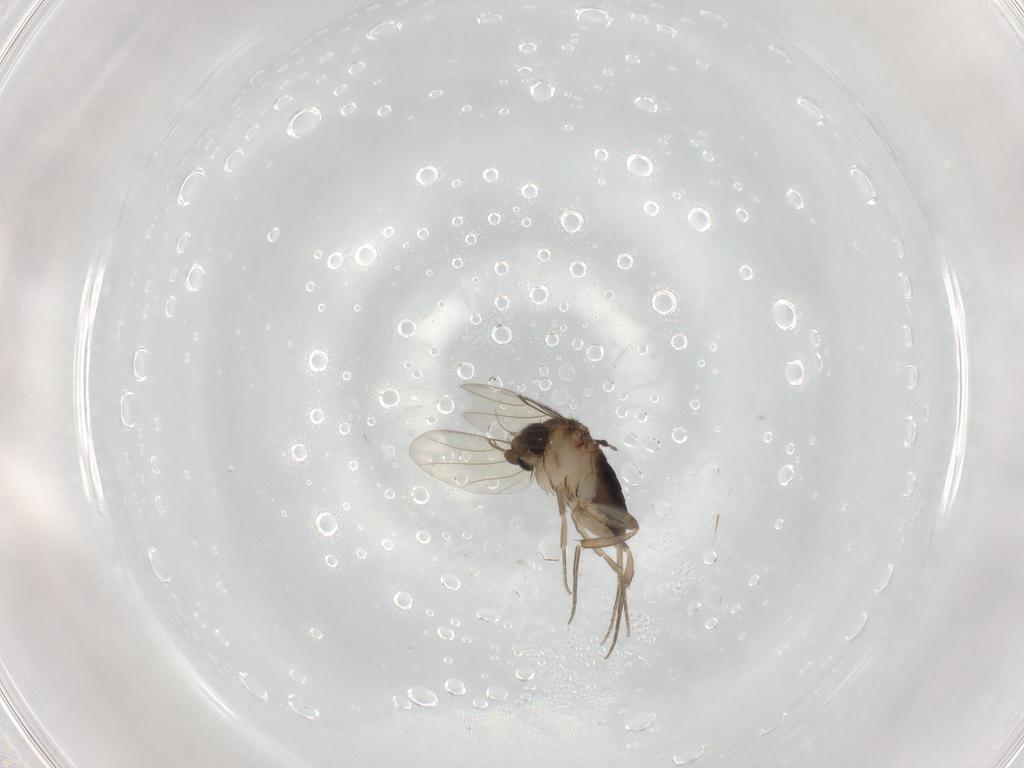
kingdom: Animalia
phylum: Arthropoda
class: Insecta
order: Diptera
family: Phoridae
